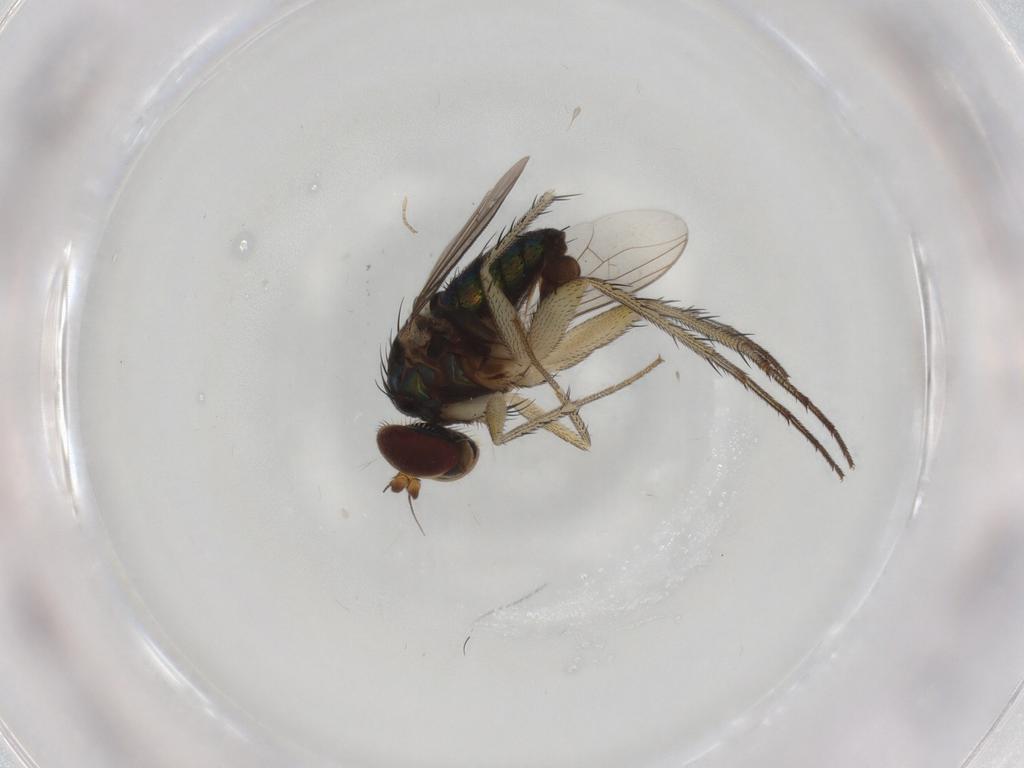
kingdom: Animalia
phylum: Arthropoda
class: Insecta
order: Diptera
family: Dolichopodidae
